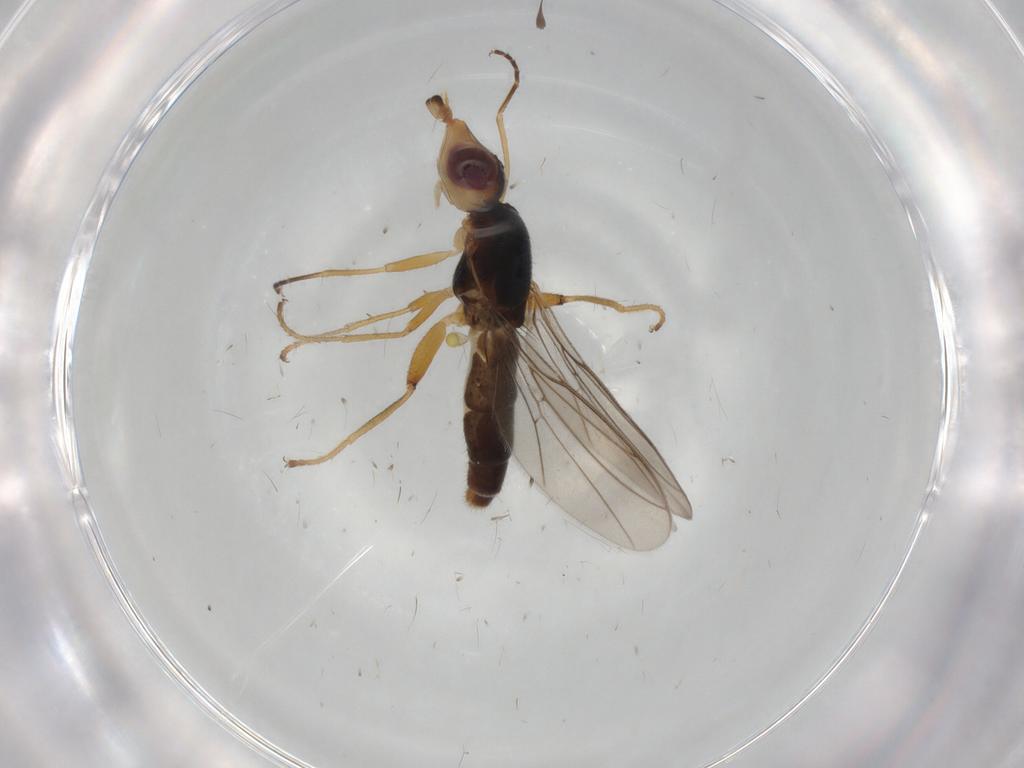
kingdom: Animalia
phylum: Arthropoda
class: Insecta
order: Diptera
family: Chloropidae
